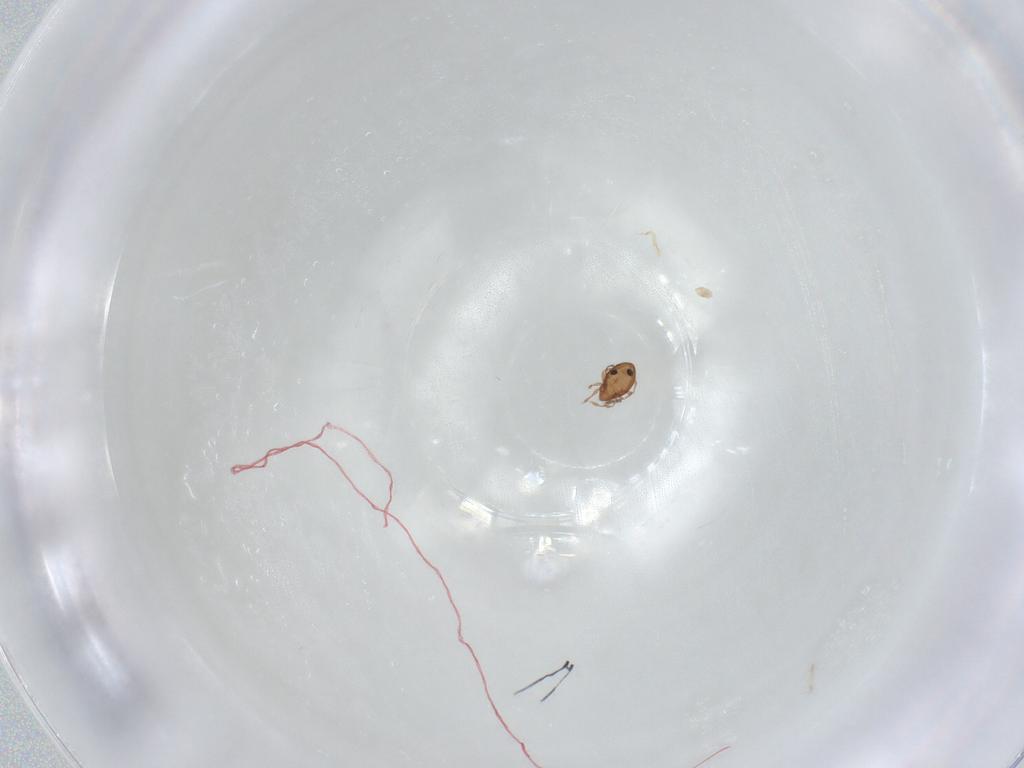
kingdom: Animalia
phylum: Arthropoda
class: Arachnida
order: Sarcoptiformes
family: Scheloribatidae
